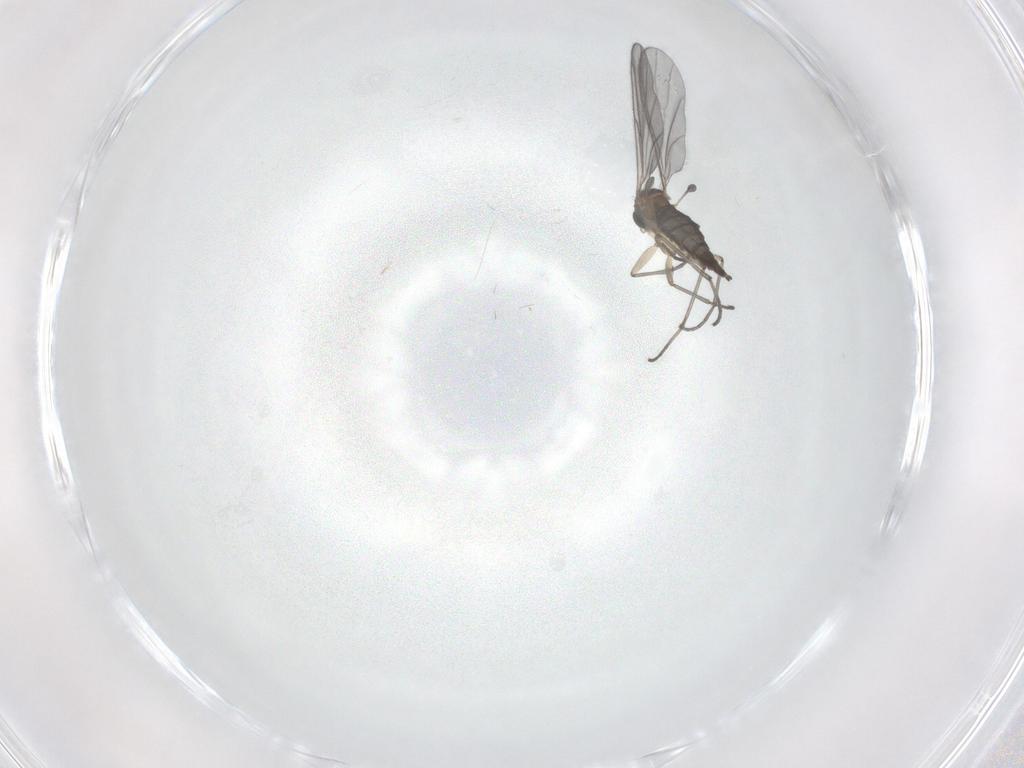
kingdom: Animalia
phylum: Arthropoda
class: Insecta
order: Diptera
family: Sciaridae
